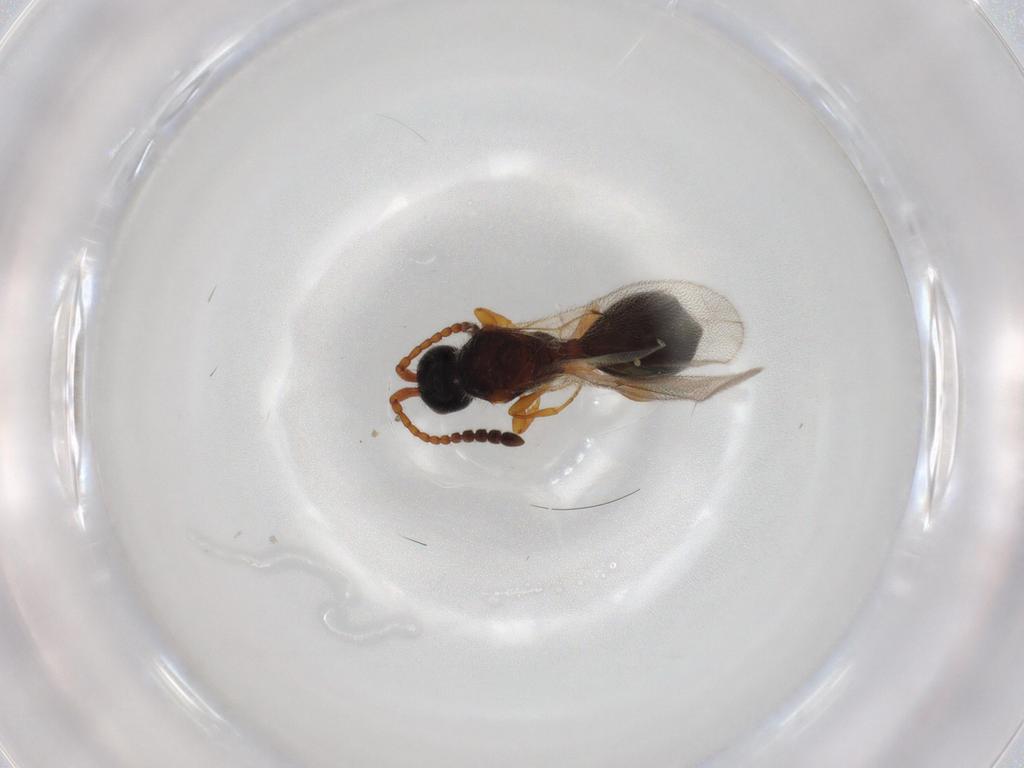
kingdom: Animalia
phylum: Arthropoda
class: Insecta
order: Hymenoptera
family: Diapriidae
